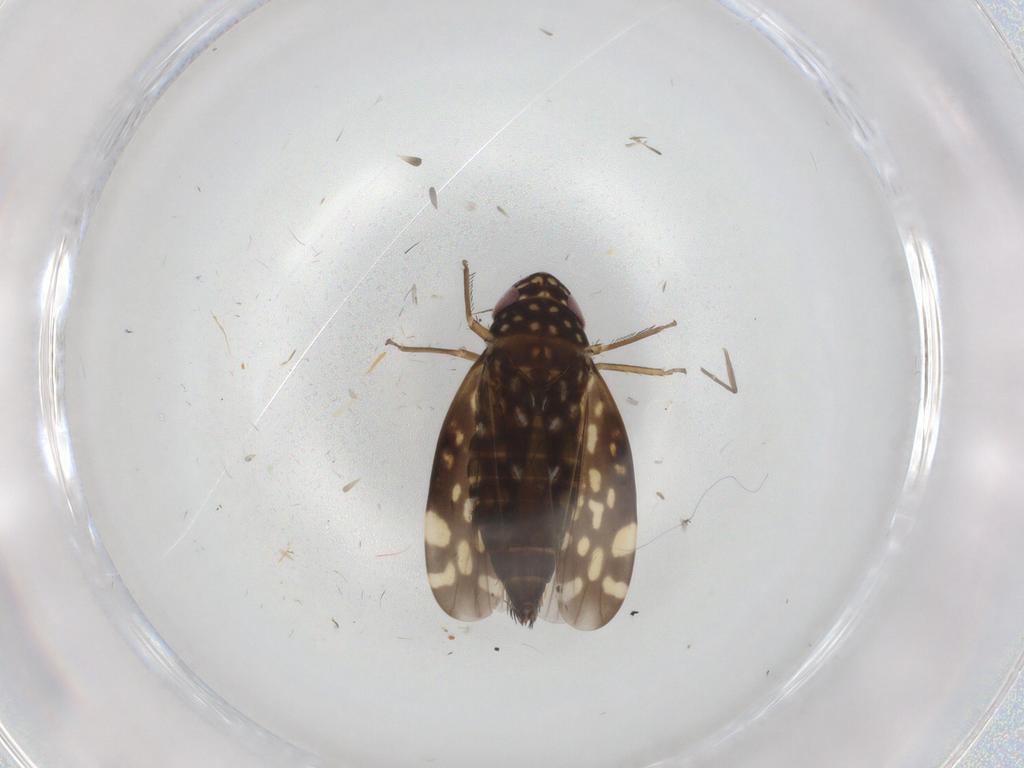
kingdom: Animalia
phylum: Arthropoda
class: Insecta
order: Hemiptera
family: Cicadellidae
